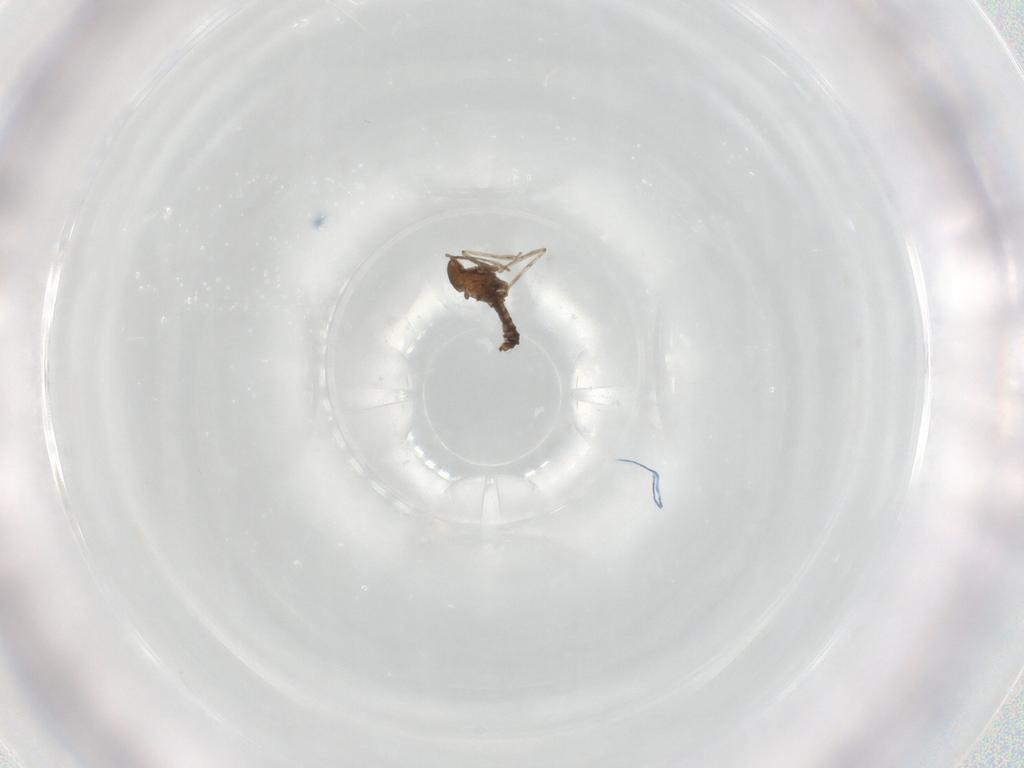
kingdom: Animalia
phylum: Arthropoda
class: Insecta
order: Diptera
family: Cecidomyiidae
